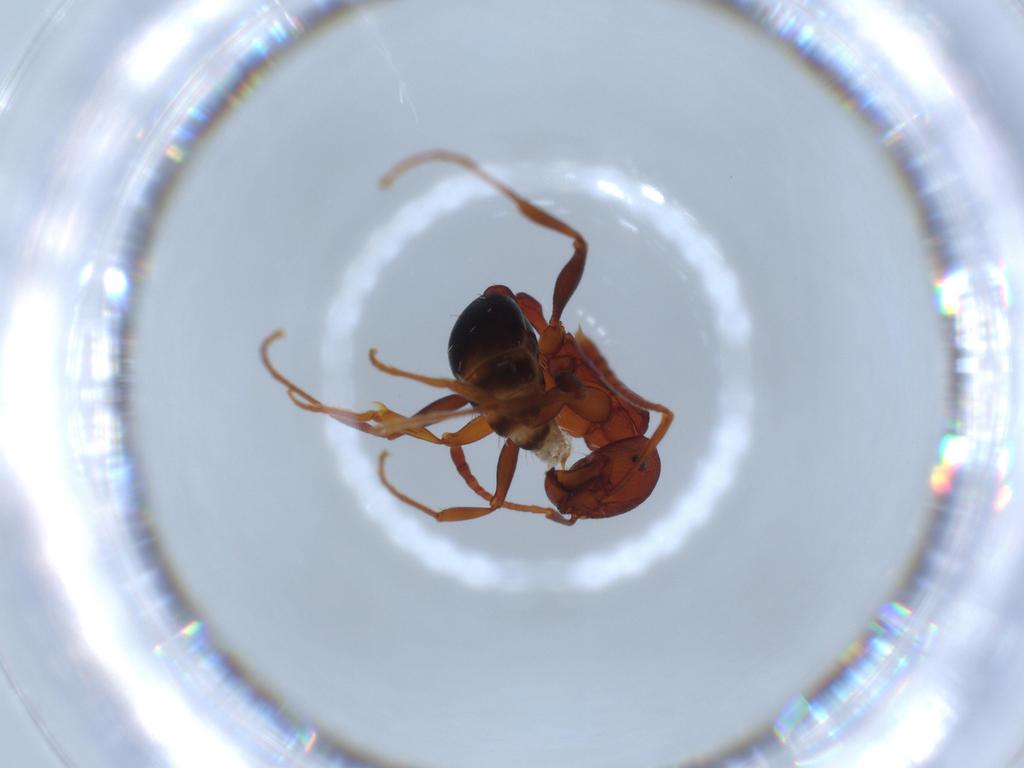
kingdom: Animalia
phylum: Arthropoda
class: Insecta
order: Hymenoptera
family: Formicidae
